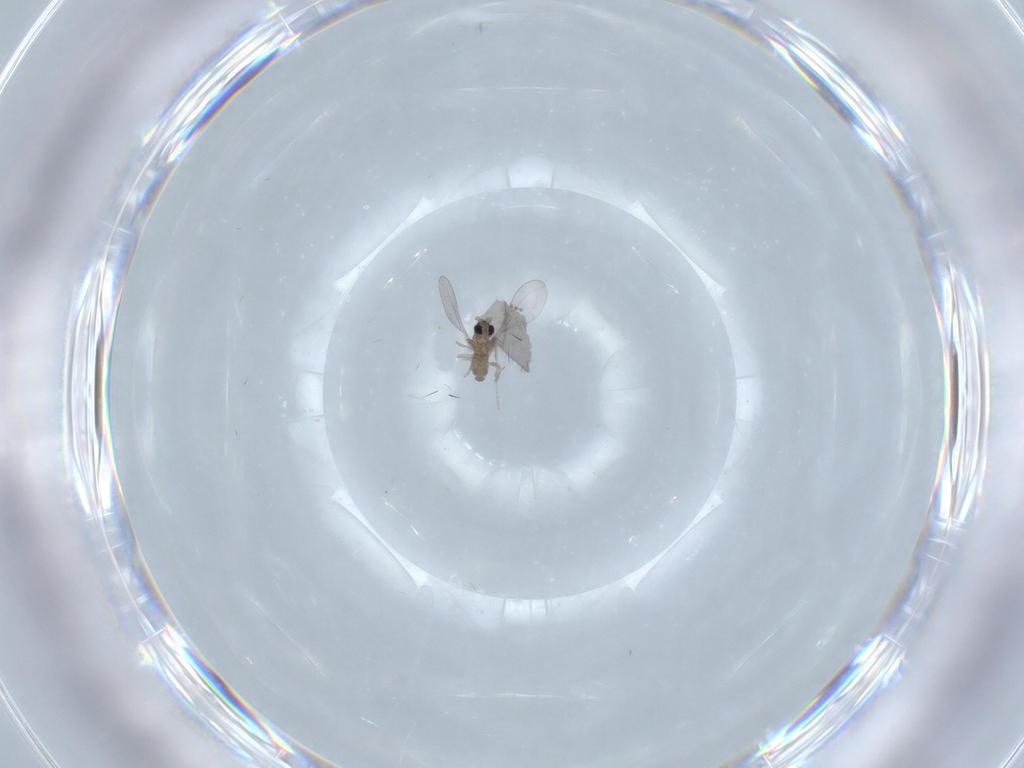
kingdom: Animalia
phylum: Arthropoda
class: Insecta
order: Diptera
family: Cecidomyiidae
